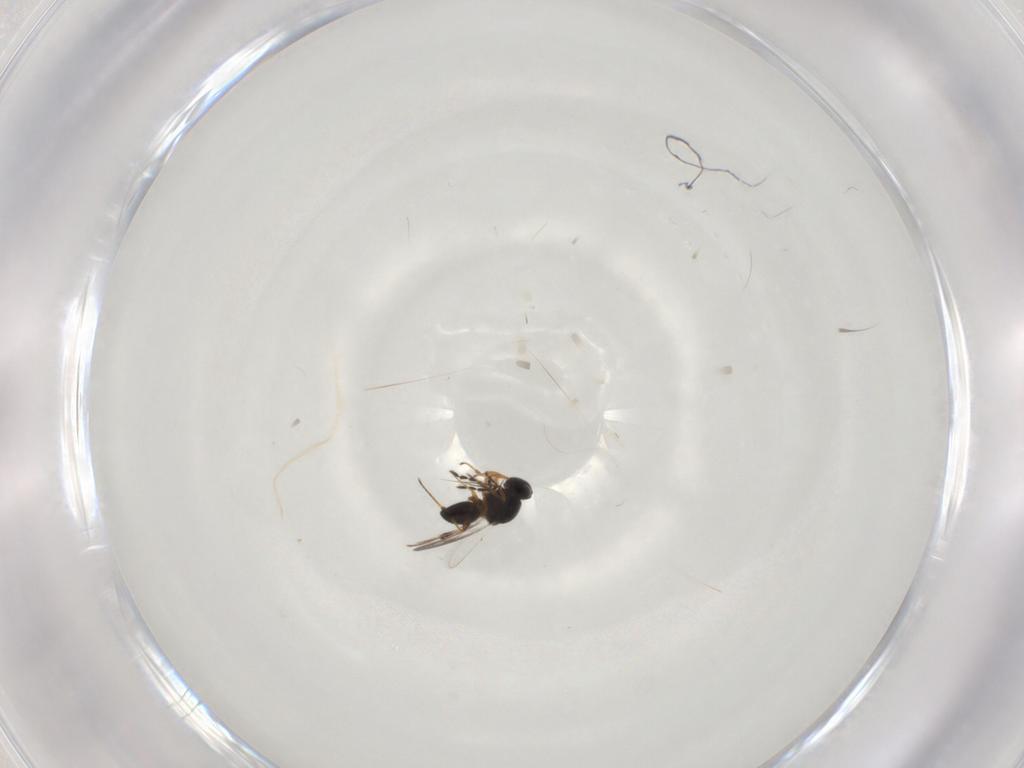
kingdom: Animalia
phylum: Arthropoda
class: Insecta
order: Hymenoptera
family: Platygastridae
